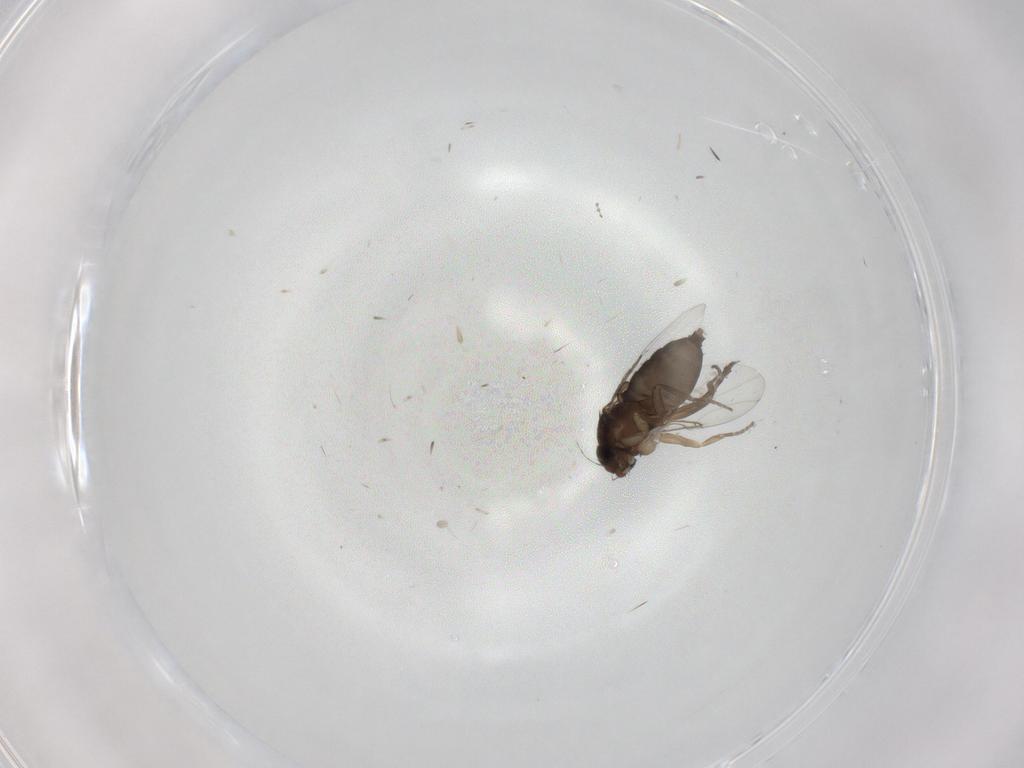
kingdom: Animalia
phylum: Arthropoda
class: Insecta
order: Diptera
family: Phoridae
